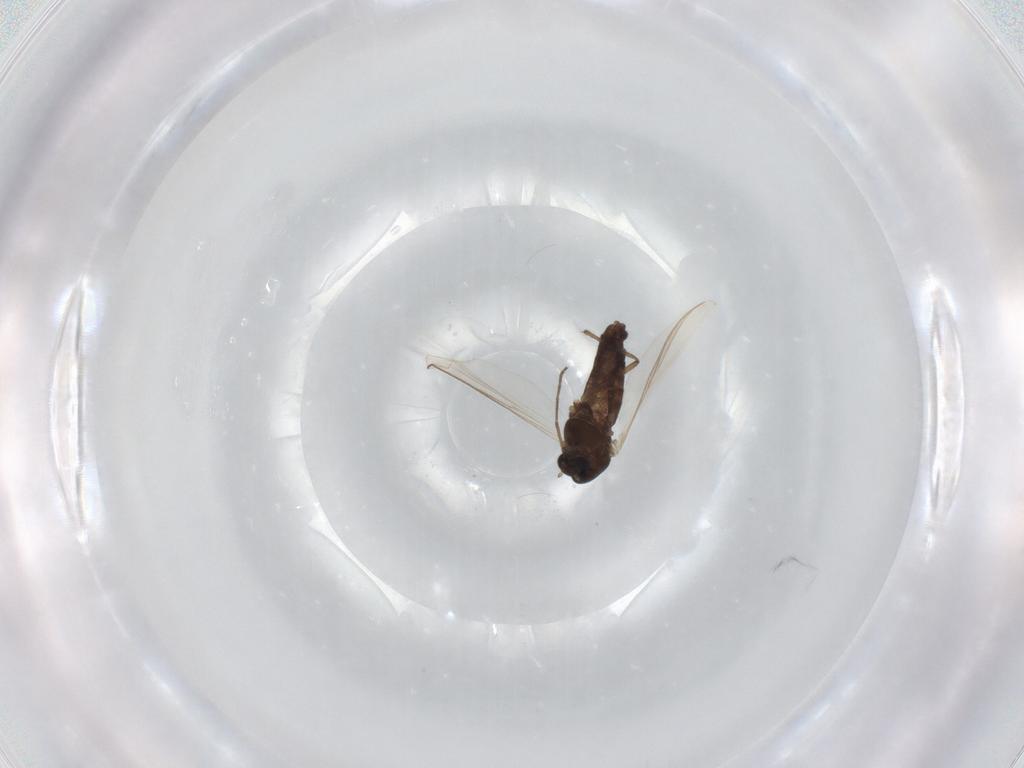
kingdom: Animalia
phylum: Arthropoda
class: Insecta
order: Diptera
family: Chironomidae
